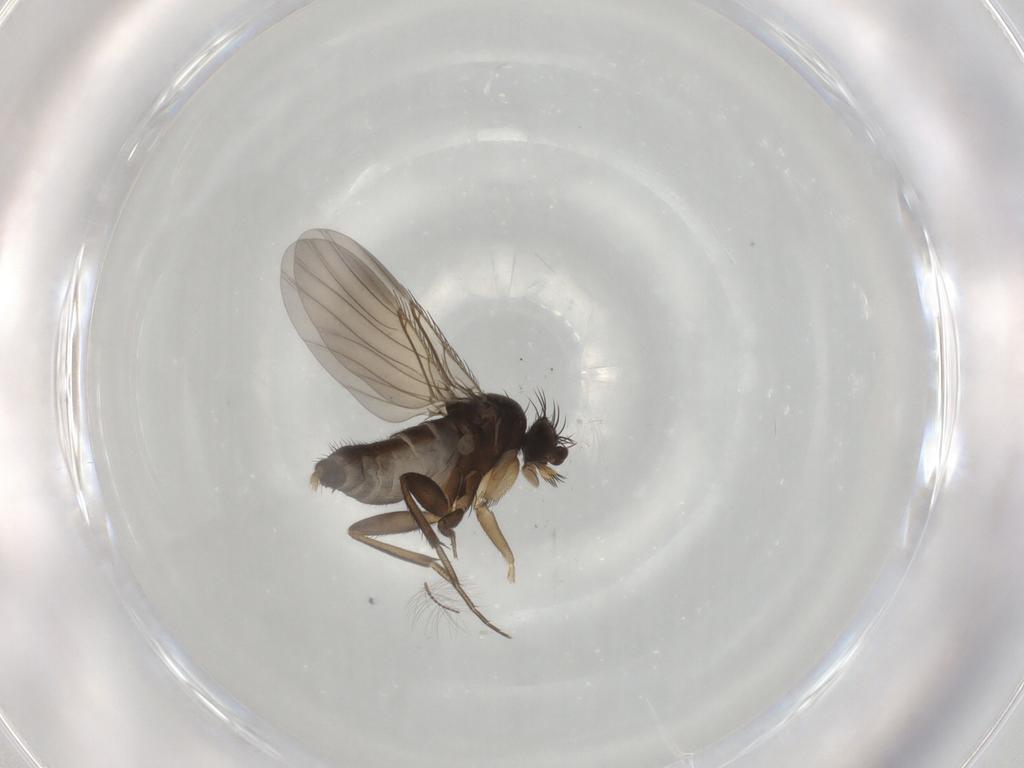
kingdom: Animalia
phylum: Arthropoda
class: Insecta
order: Diptera
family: Phoridae
